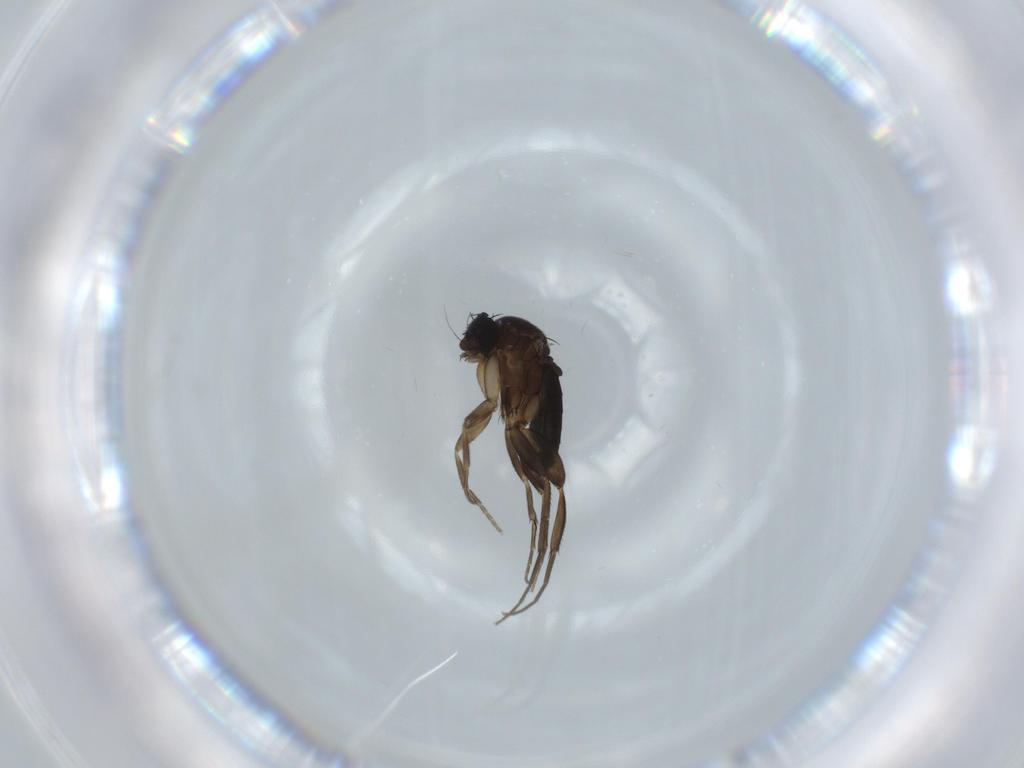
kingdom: Animalia
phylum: Arthropoda
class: Insecta
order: Diptera
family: Phoridae
